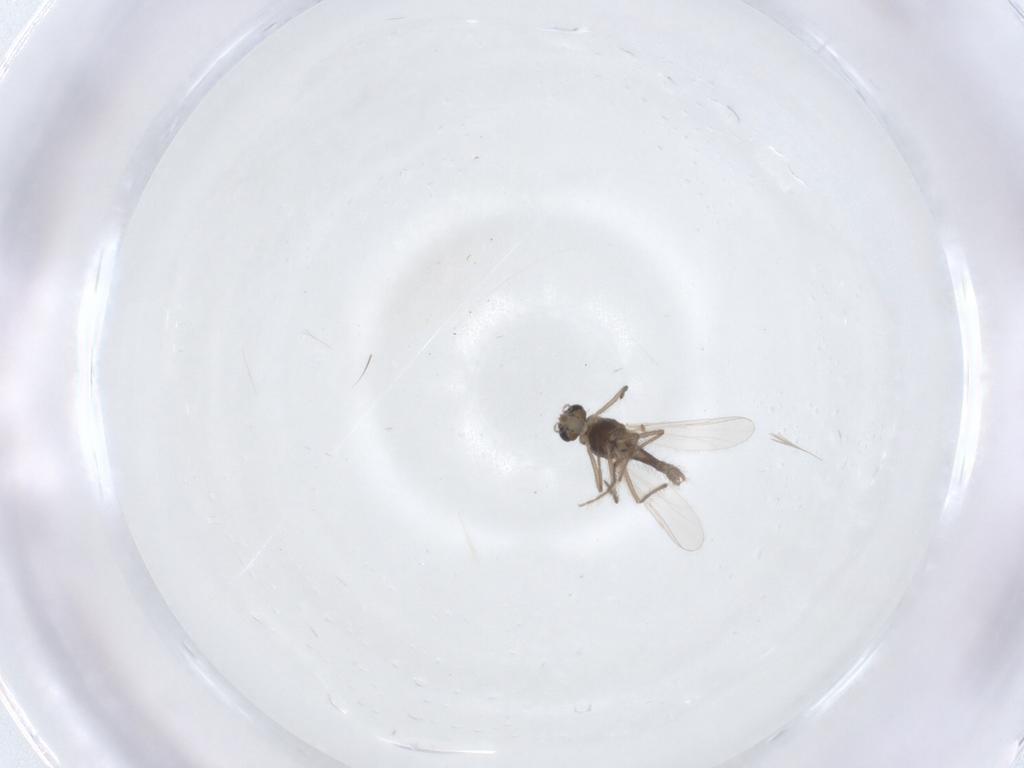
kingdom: Animalia
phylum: Arthropoda
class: Insecta
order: Diptera
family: Chironomidae
